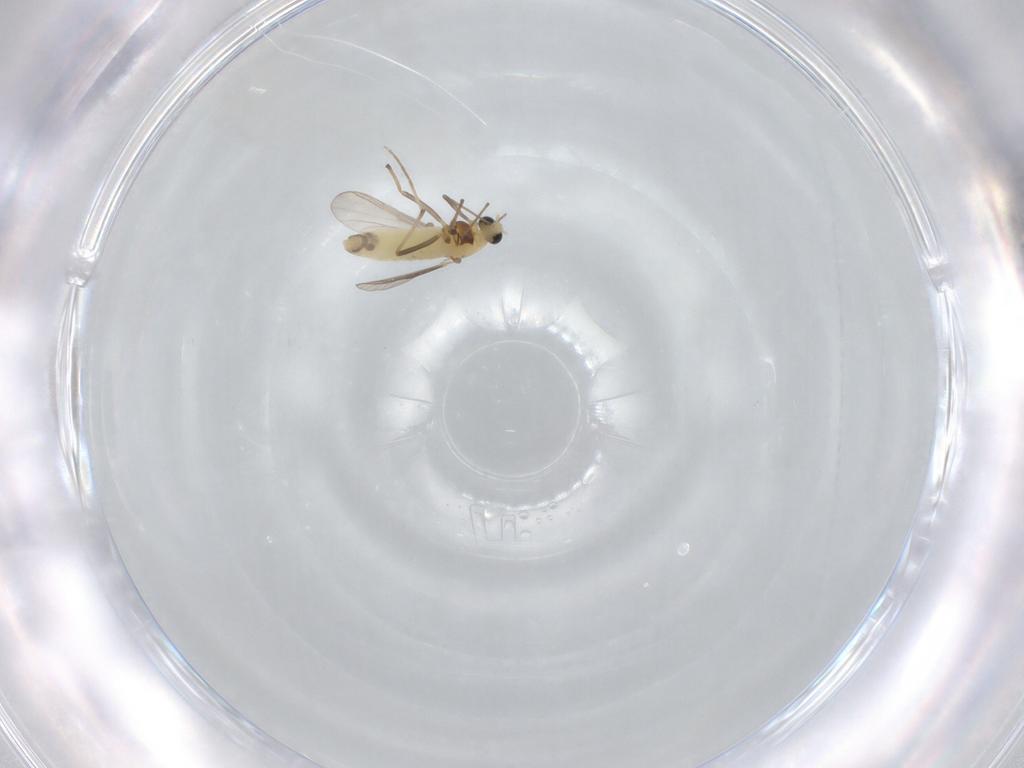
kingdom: Animalia
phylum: Arthropoda
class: Insecta
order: Diptera
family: Chironomidae
